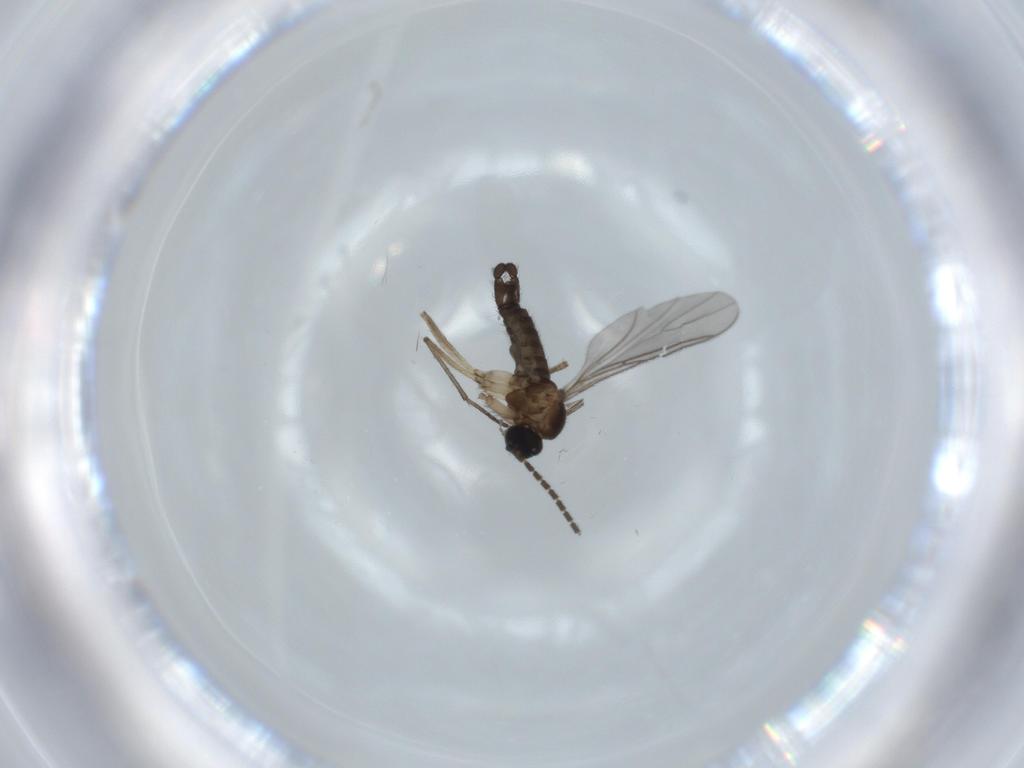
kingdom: Animalia
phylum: Arthropoda
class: Insecta
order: Diptera
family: Sciaridae
